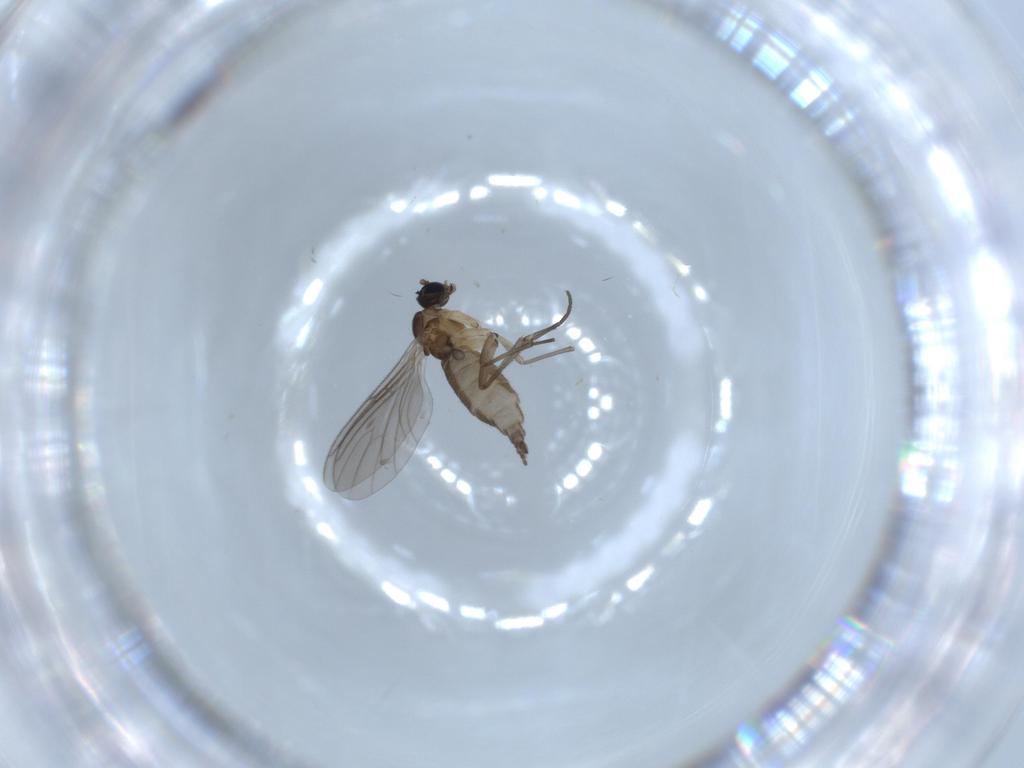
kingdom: Animalia
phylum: Arthropoda
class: Insecta
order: Diptera
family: Sciaridae
